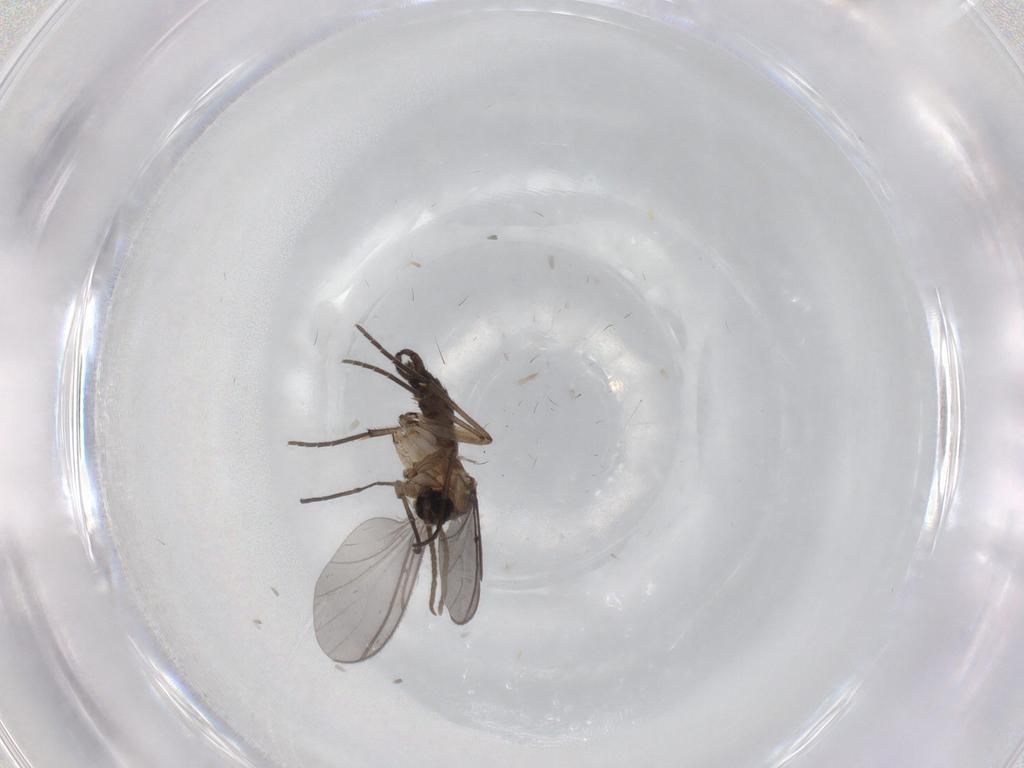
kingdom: Animalia
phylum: Arthropoda
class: Insecta
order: Diptera
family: Sciaridae
